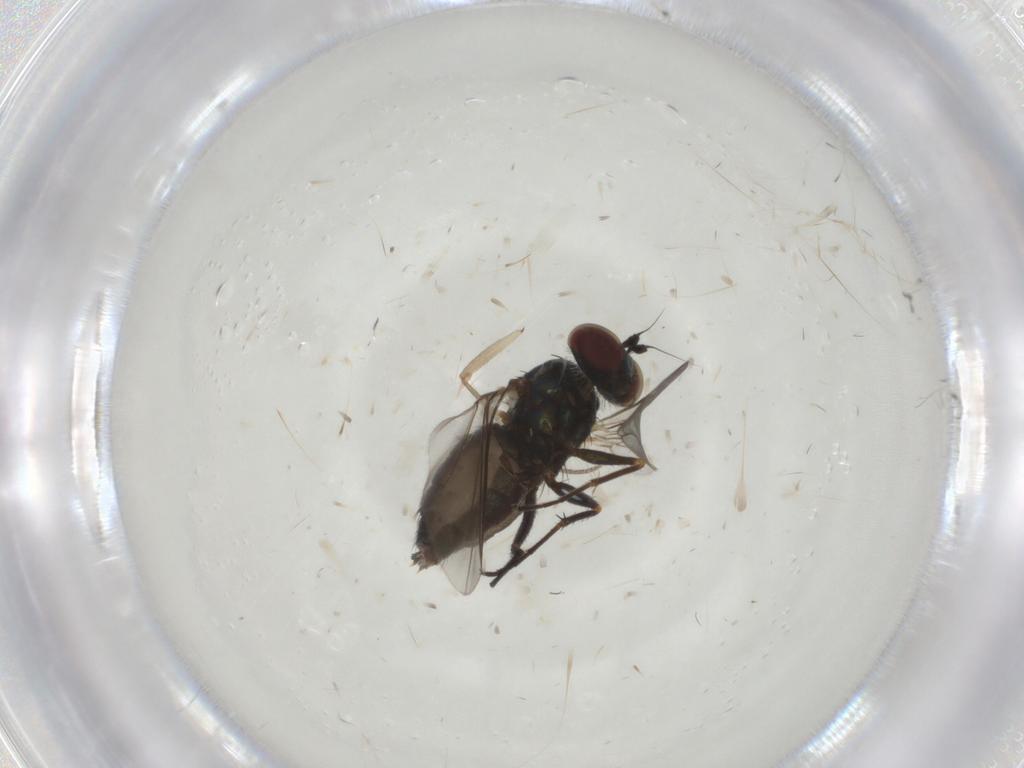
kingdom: Animalia
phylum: Arthropoda
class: Insecta
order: Diptera
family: Dolichopodidae
